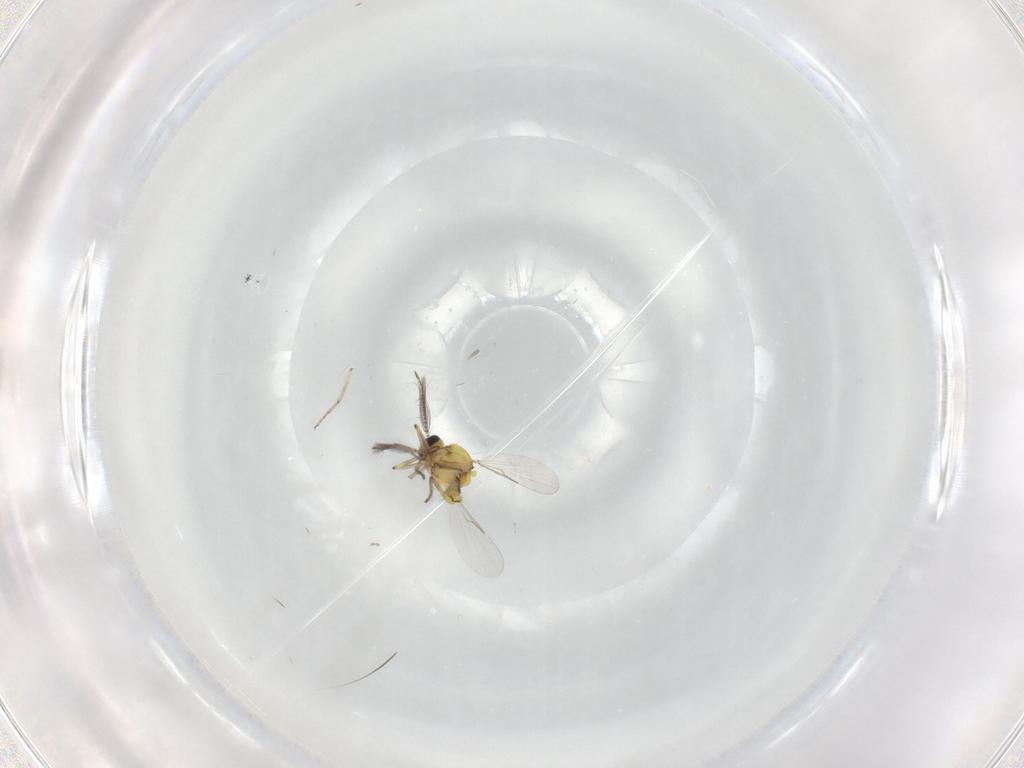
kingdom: Animalia
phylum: Arthropoda
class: Insecta
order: Diptera
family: Cecidomyiidae
